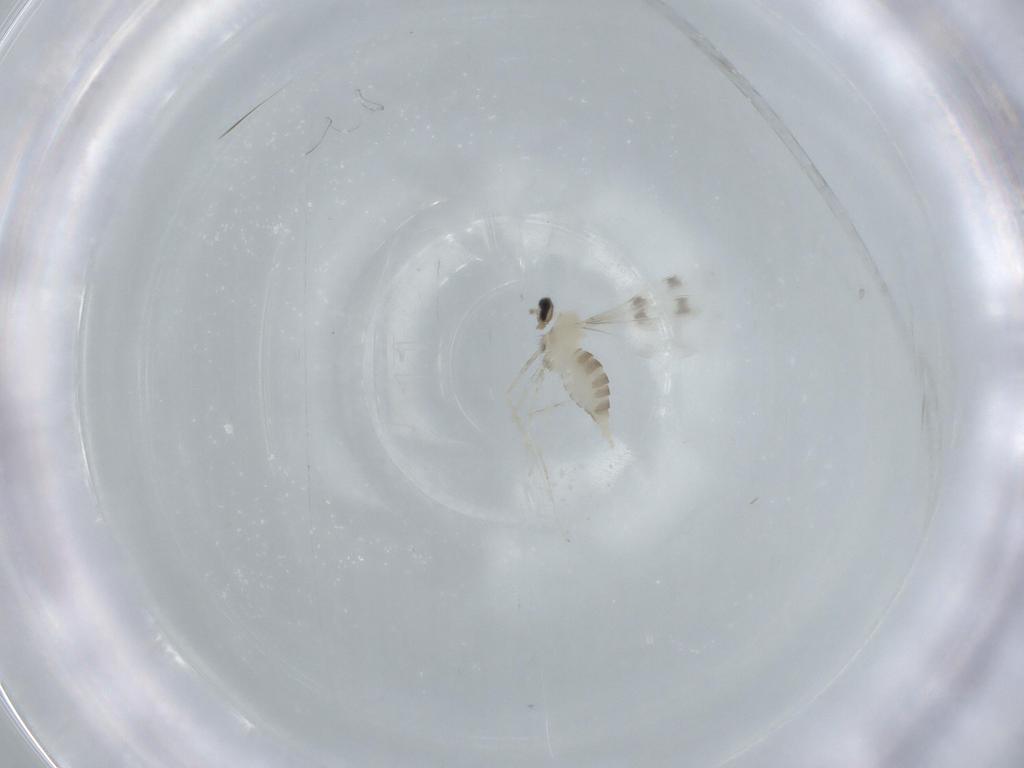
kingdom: Animalia
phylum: Arthropoda
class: Insecta
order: Diptera
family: Cecidomyiidae
